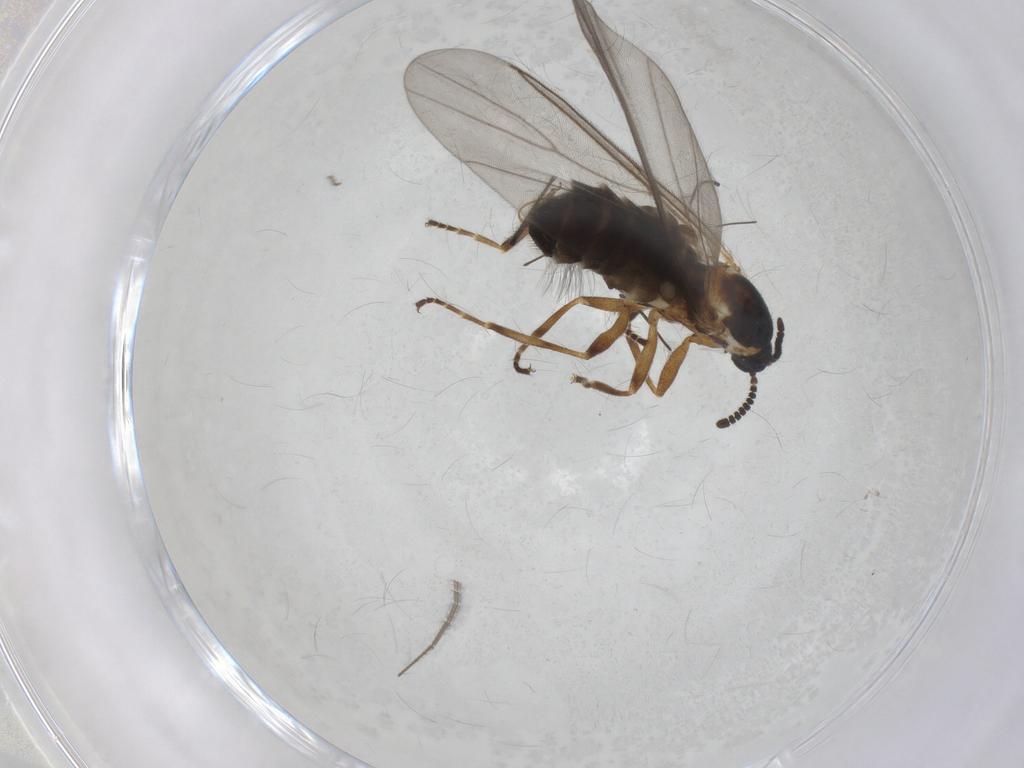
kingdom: Animalia
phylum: Arthropoda
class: Insecta
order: Diptera
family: Scatopsidae
